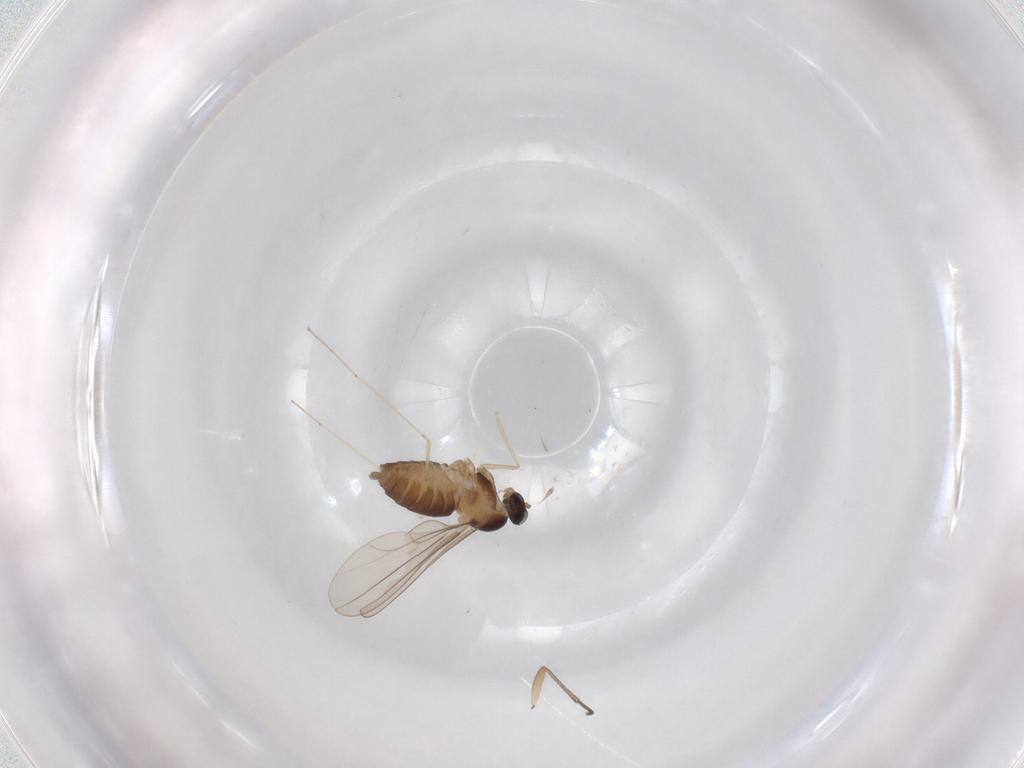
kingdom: Animalia
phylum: Arthropoda
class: Insecta
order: Diptera
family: Cecidomyiidae
